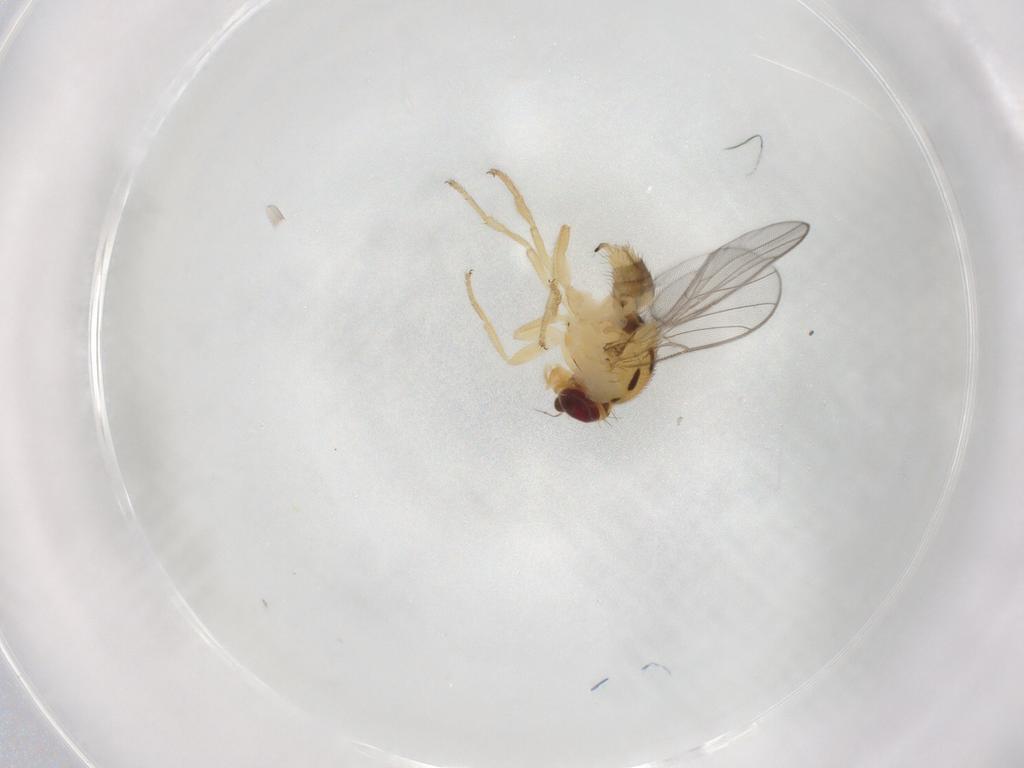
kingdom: Animalia
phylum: Arthropoda
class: Insecta
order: Diptera
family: Chloropidae
